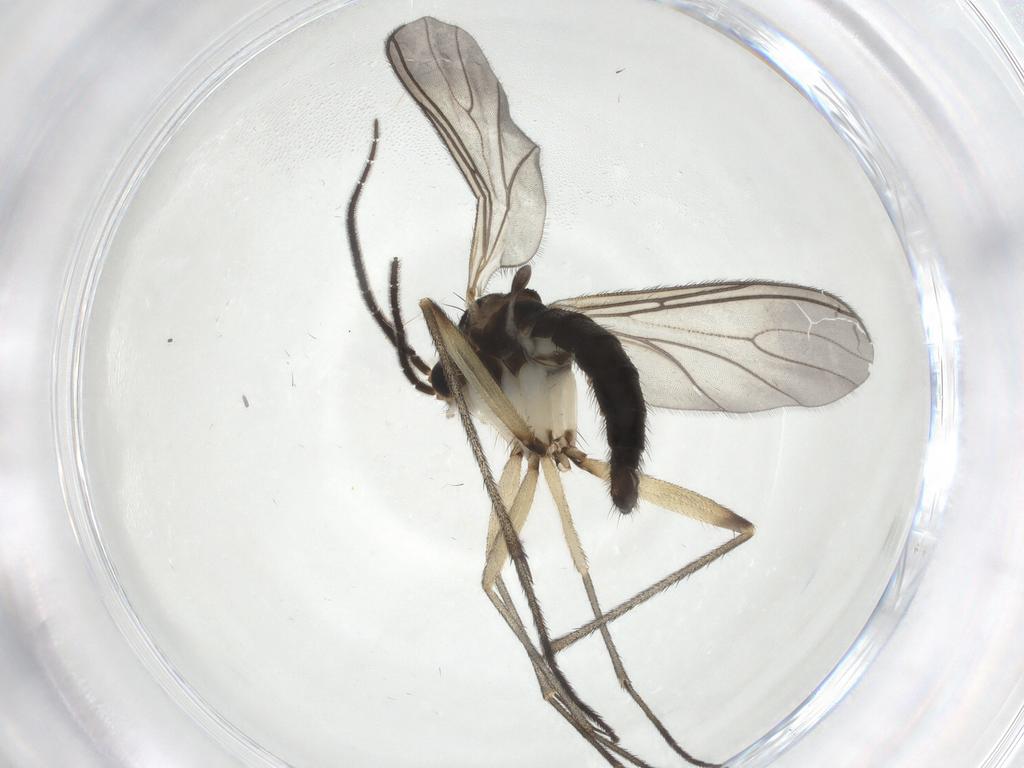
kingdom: Animalia
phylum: Arthropoda
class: Insecta
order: Diptera
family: Sciaridae
